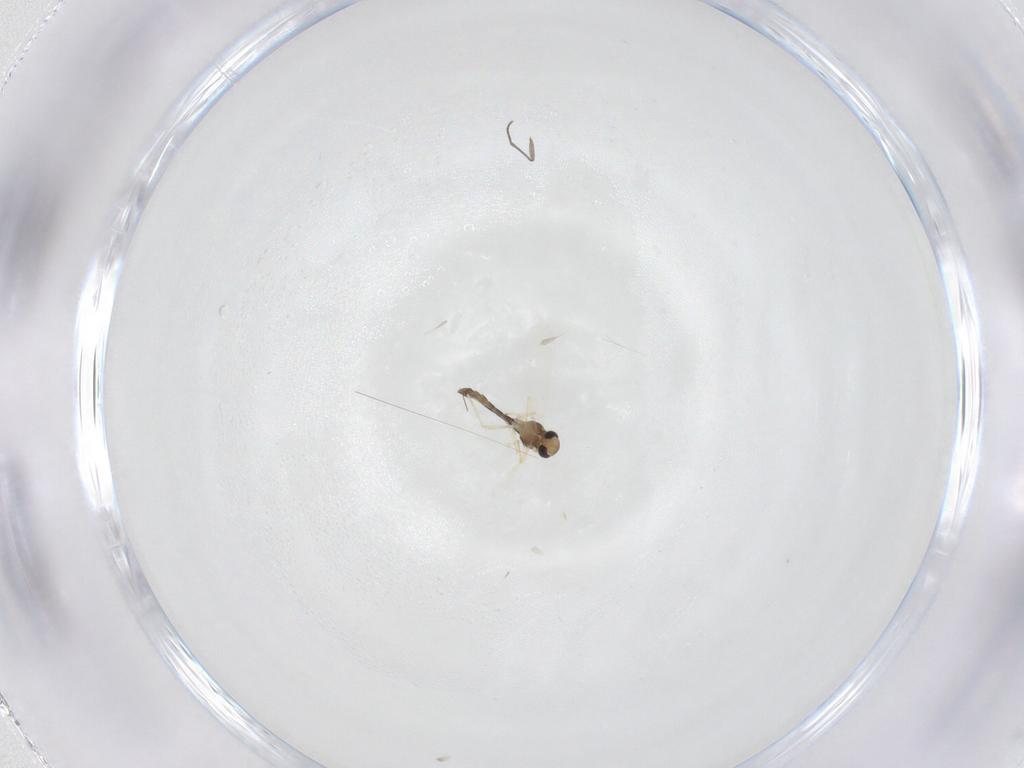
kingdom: Animalia
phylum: Arthropoda
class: Insecta
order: Diptera
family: Chironomidae
